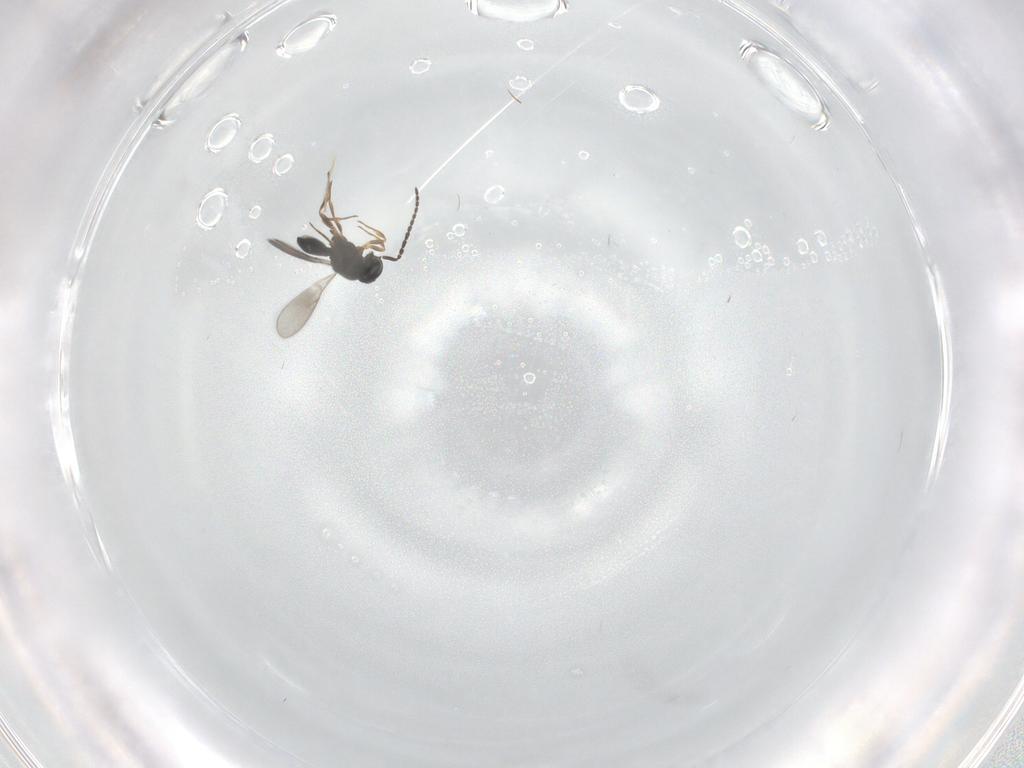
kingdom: Animalia
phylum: Arthropoda
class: Insecta
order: Hymenoptera
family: Scelionidae
